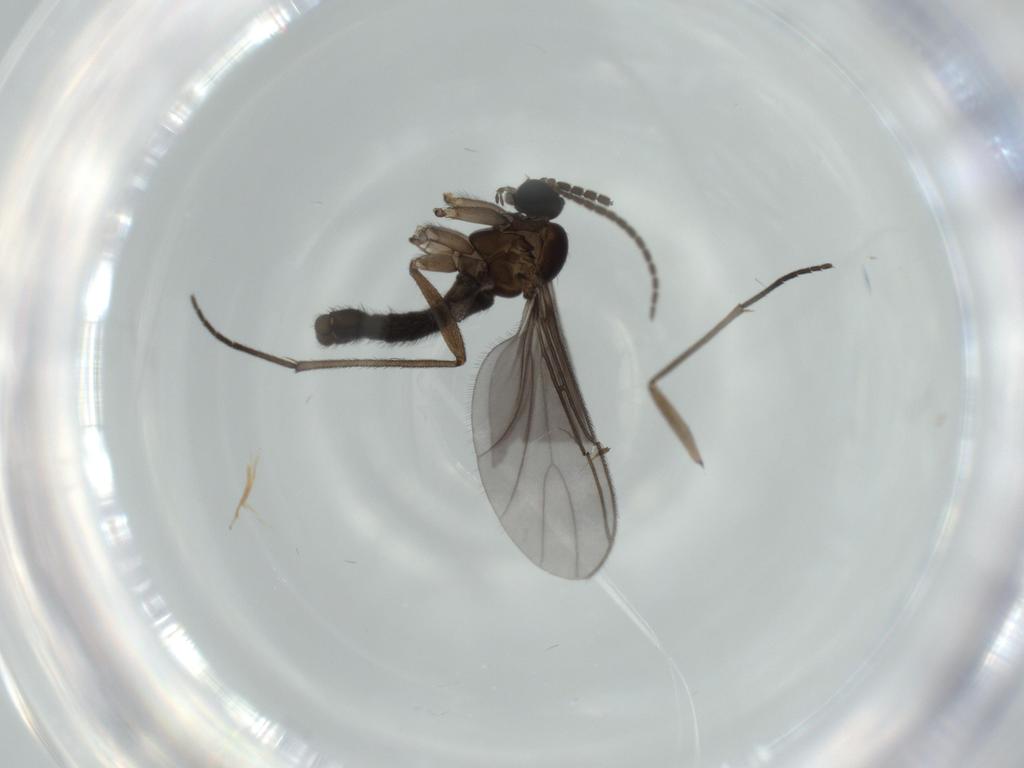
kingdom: Animalia
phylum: Arthropoda
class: Insecta
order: Diptera
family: Sciaridae
